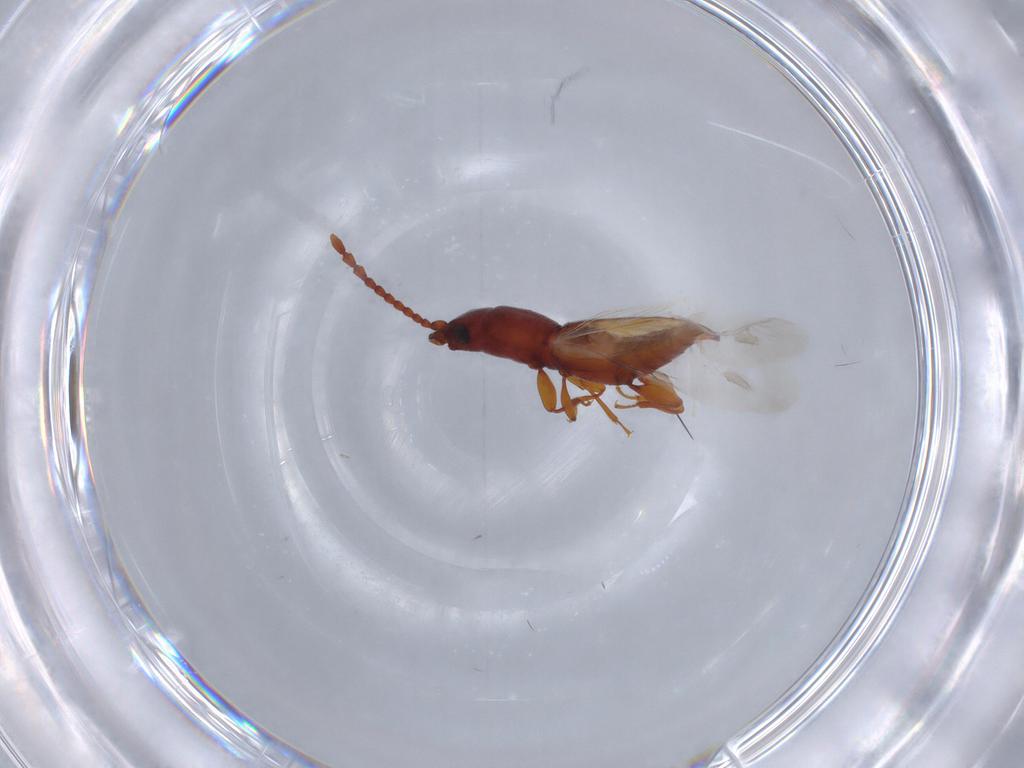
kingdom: Animalia
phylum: Arthropoda
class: Insecta
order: Coleoptera
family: Laemophloeidae
